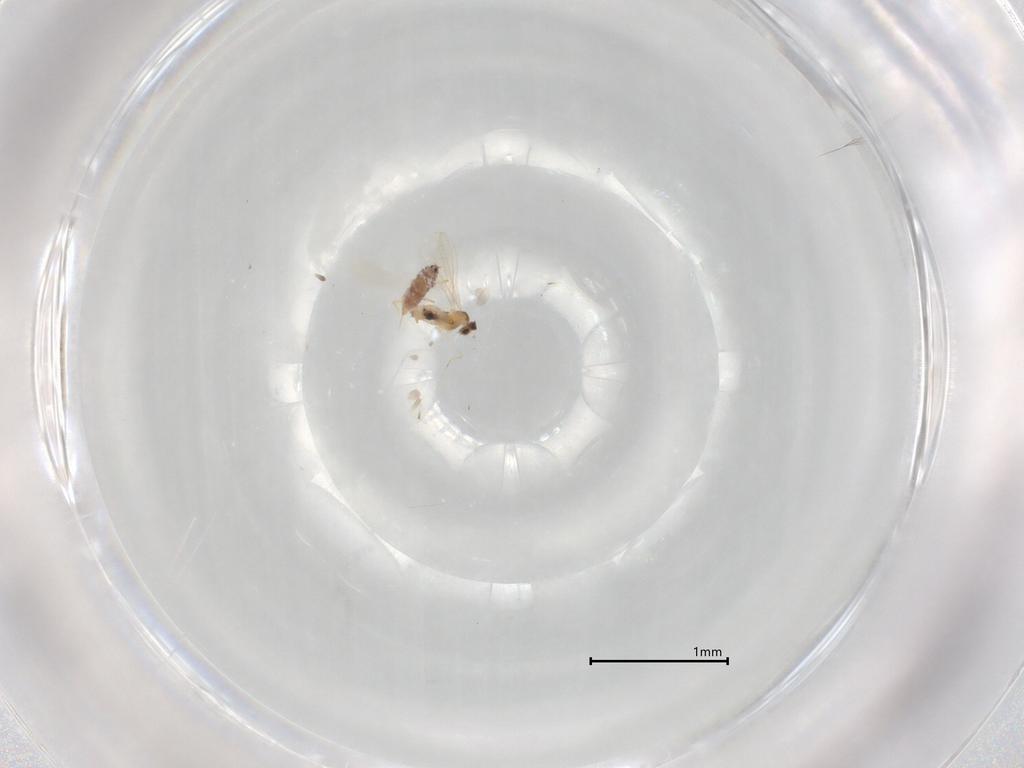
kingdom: Animalia
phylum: Arthropoda
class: Insecta
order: Diptera
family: Cecidomyiidae
